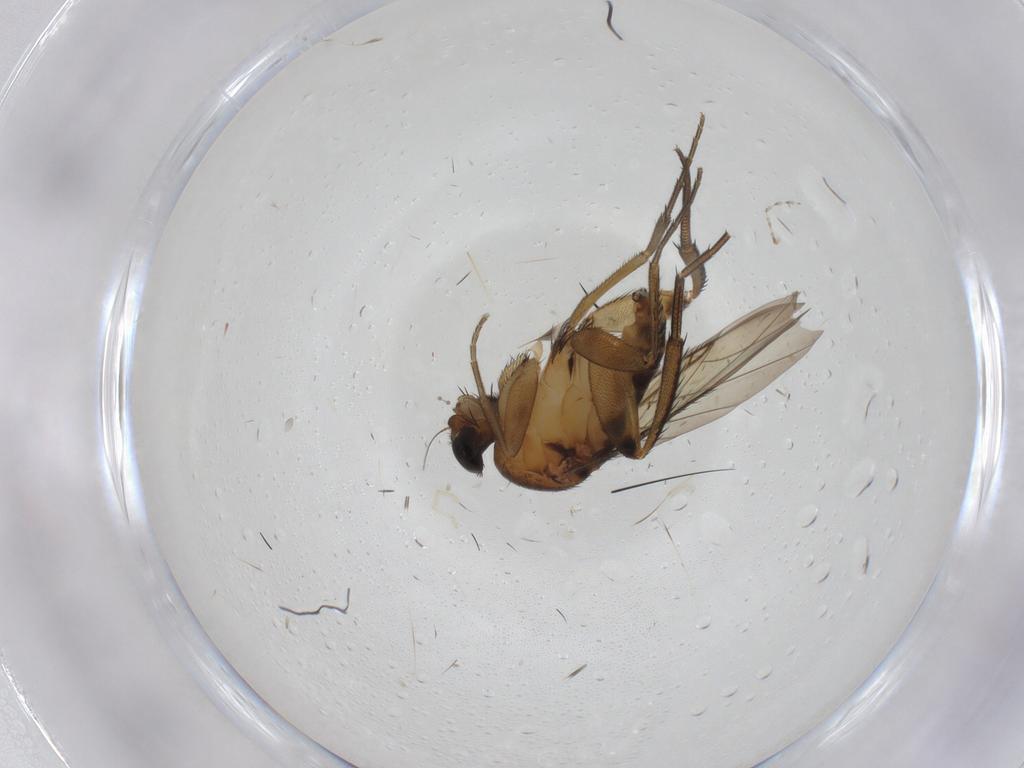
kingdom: Animalia
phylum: Arthropoda
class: Insecta
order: Diptera
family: Cecidomyiidae
